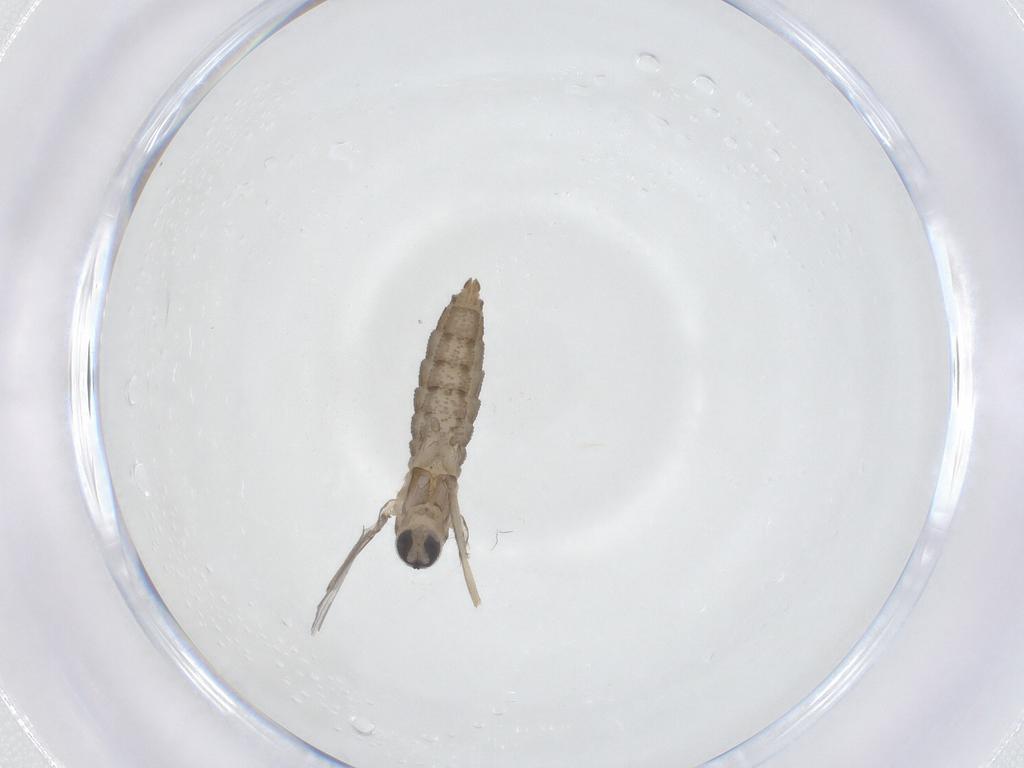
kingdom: Animalia
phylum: Arthropoda
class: Insecta
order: Diptera
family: Cecidomyiidae
